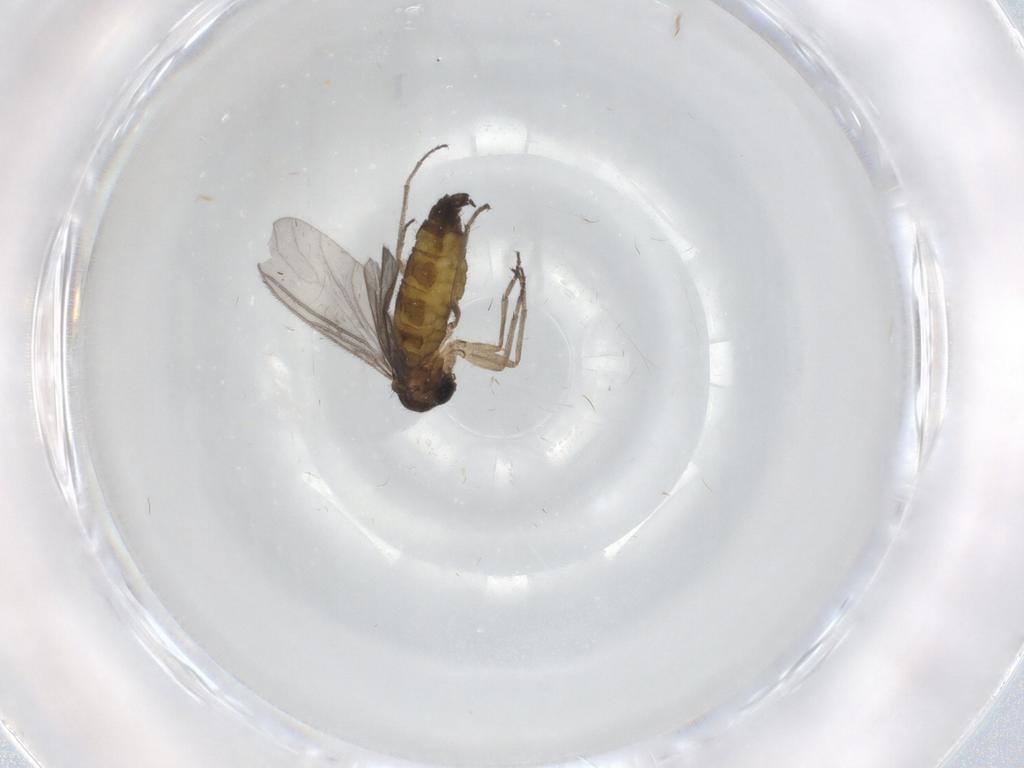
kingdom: Animalia
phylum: Arthropoda
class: Insecta
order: Diptera
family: Sciaridae
